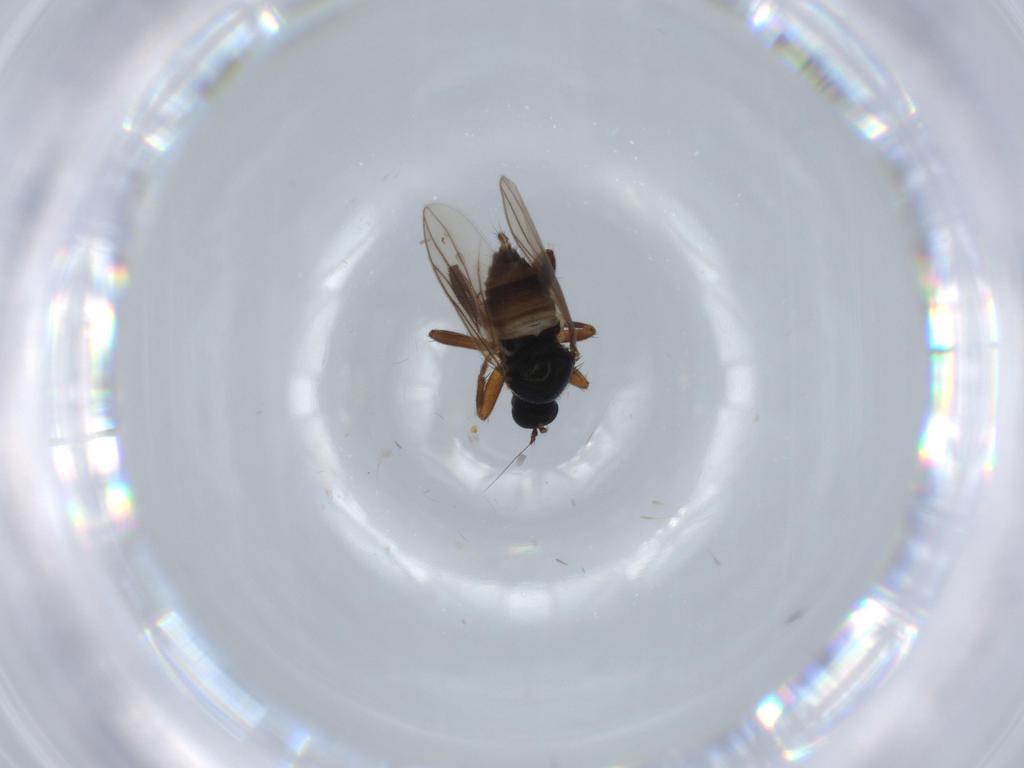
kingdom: Animalia
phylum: Arthropoda
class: Insecta
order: Diptera
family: Hybotidae
